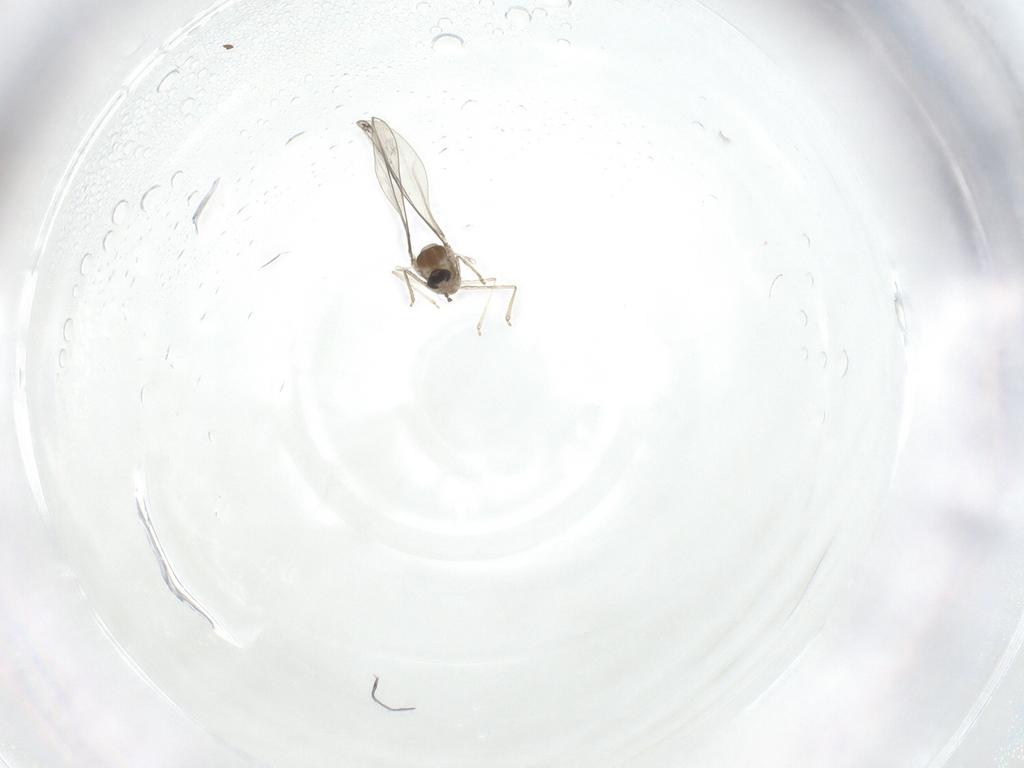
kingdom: Animalia
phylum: Arthropoda
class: Insecta
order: Diptera
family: Cecidomyiidae
